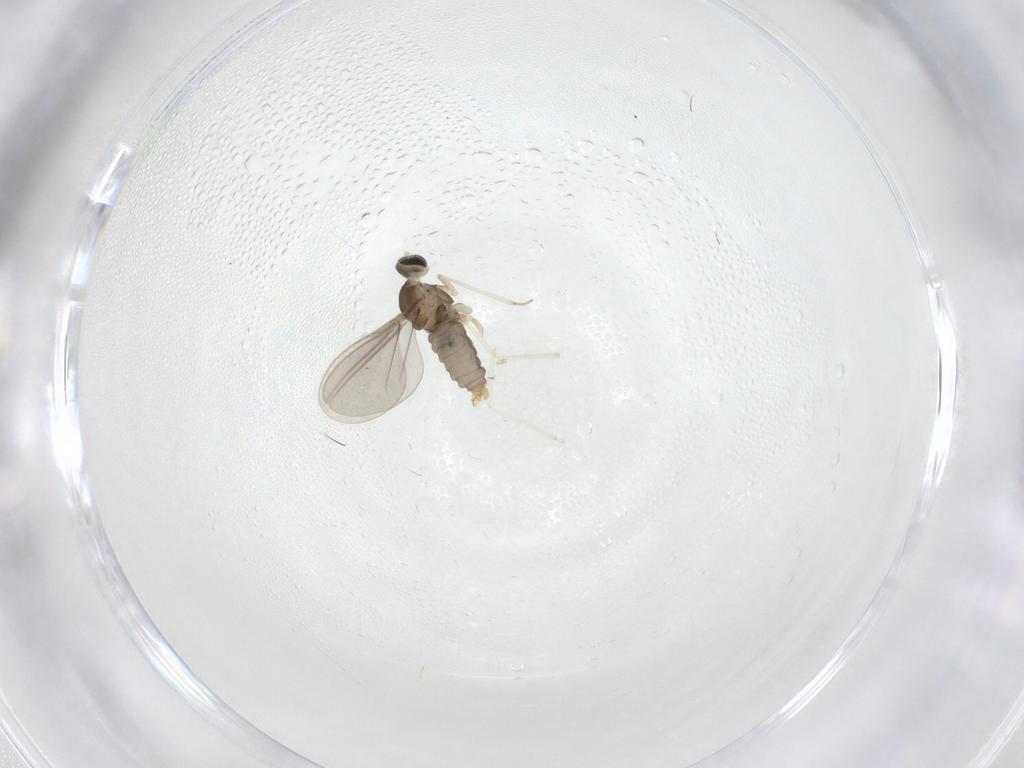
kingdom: Animalia
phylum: Arthropoda
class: Insecta
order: Diptera
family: Cecidomyiidae
